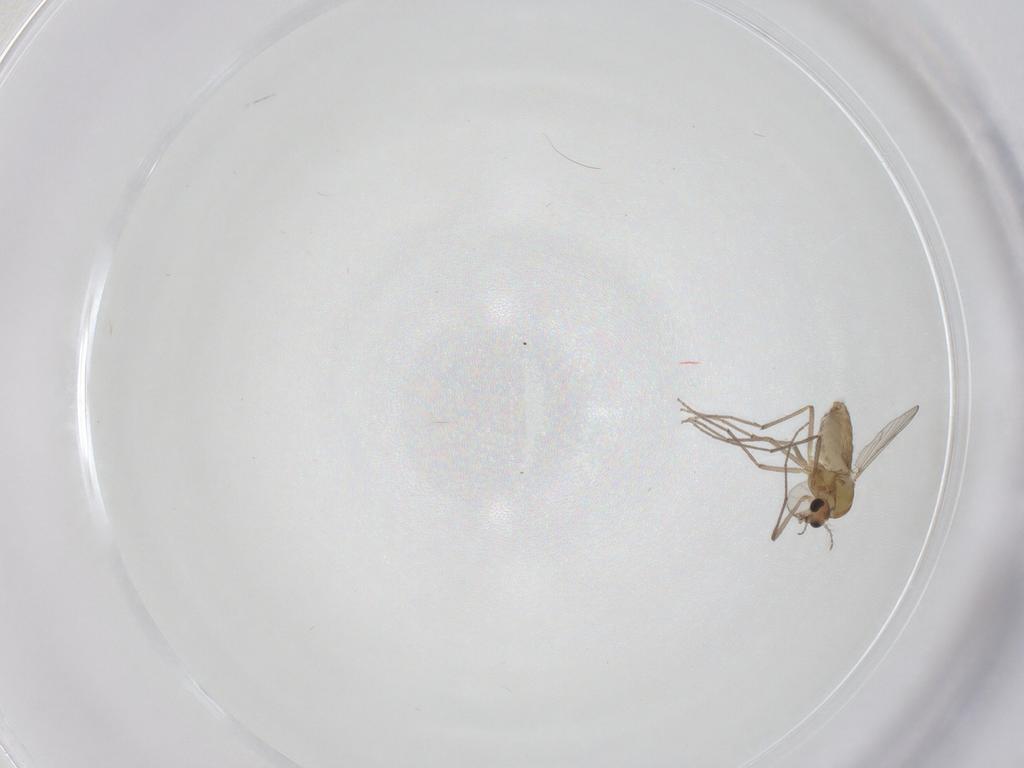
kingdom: Animalia
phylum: Arthropoda
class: Insecta
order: Diptera
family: Chironomidae
